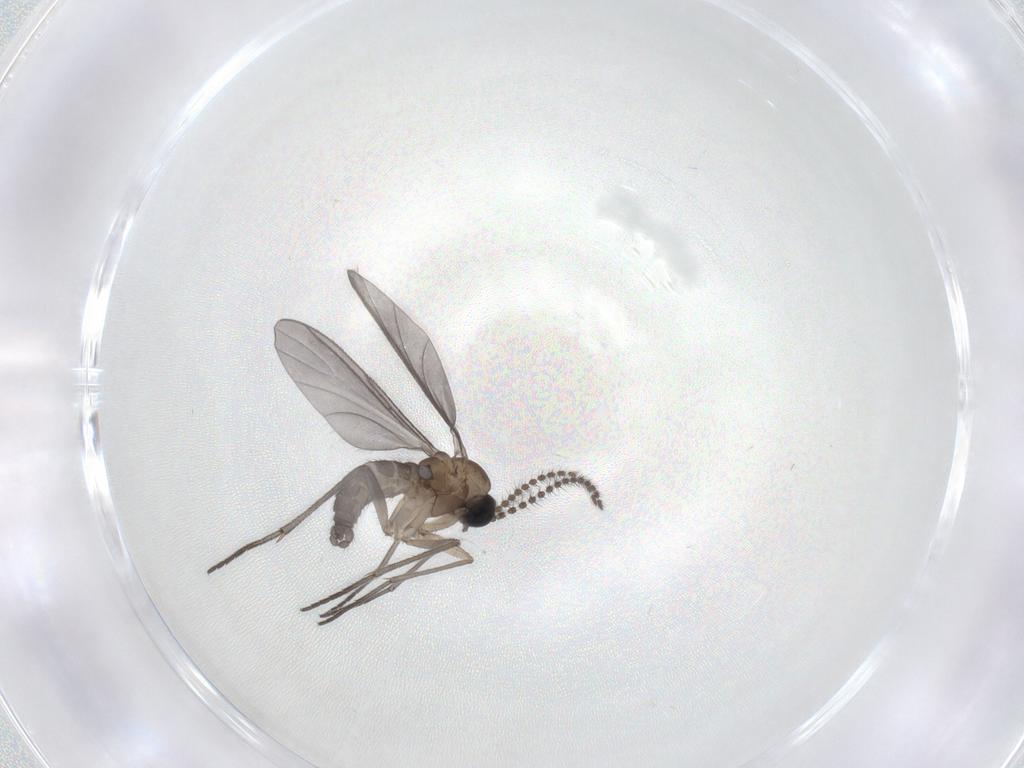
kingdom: Animalia
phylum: Arthropoda
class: Insecta
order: Diptera
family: Sciaridae
